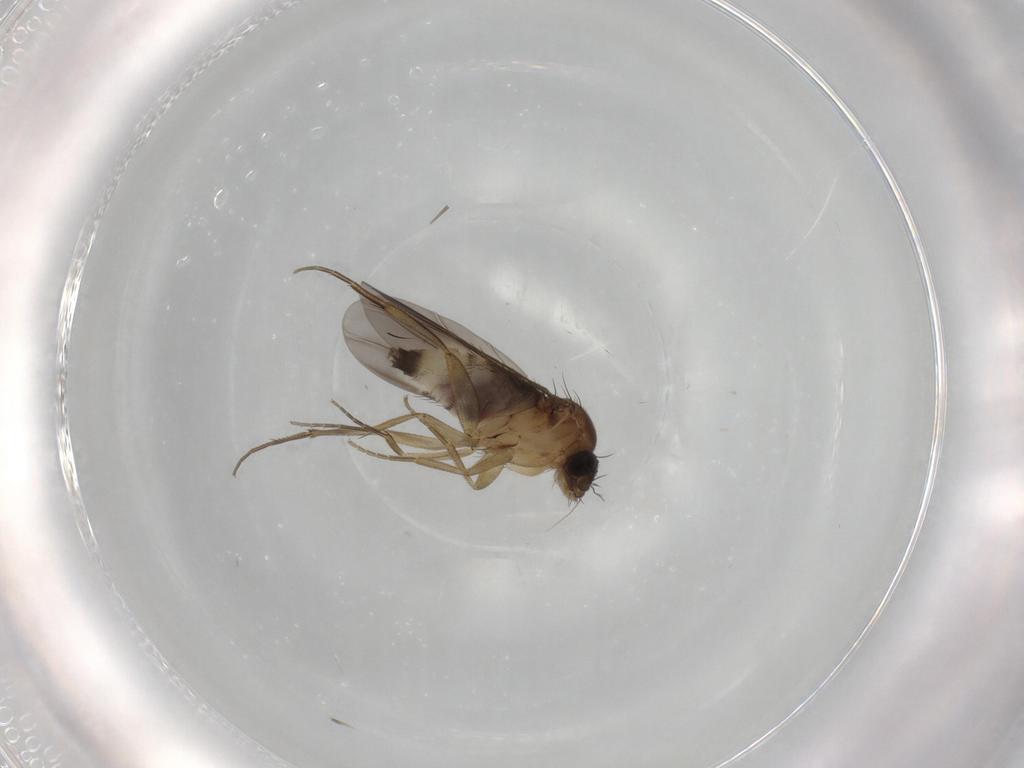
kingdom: Animalia
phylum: Arthropoda
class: Insecta
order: Diptera
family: Phoridae
